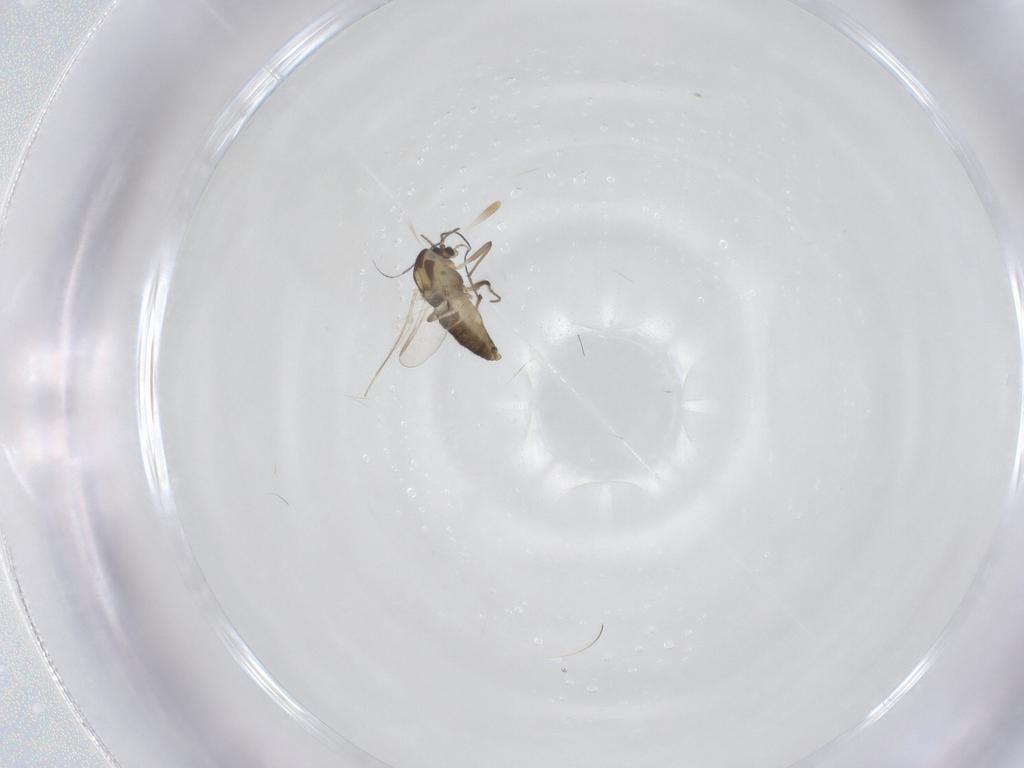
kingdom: Animalia
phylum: Arthropoda
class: Insecta
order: Diptera
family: Chironomidae
